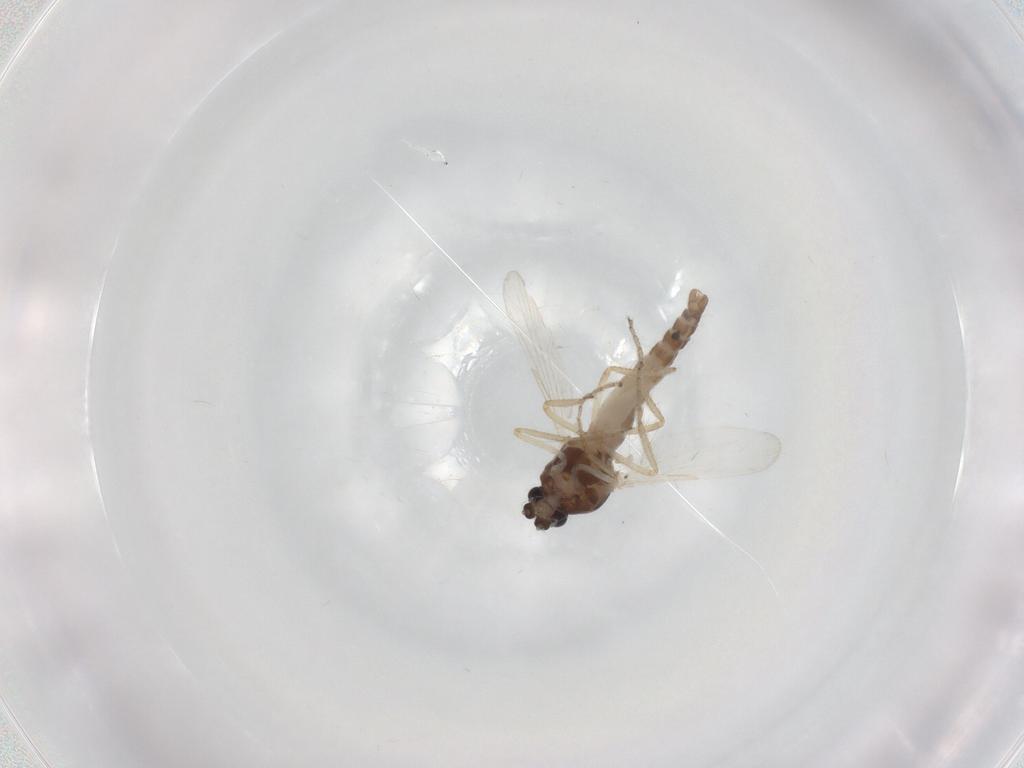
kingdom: Animalia
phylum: Arthropoda
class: Insecta
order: Diptera
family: Ceratopogonidae
